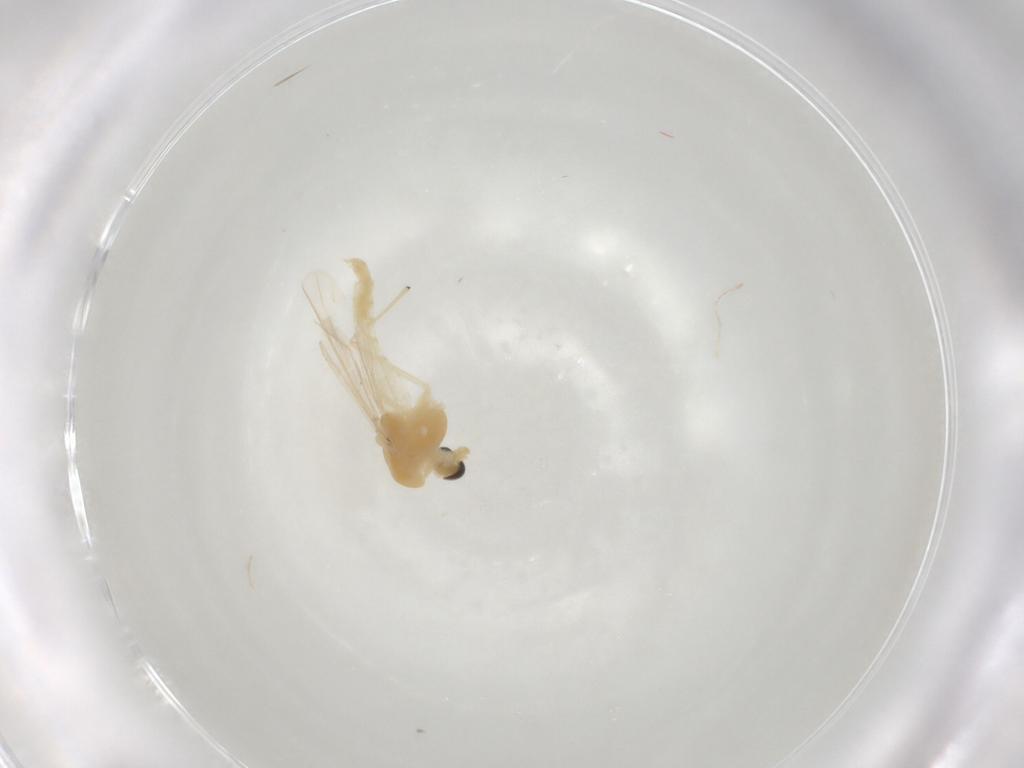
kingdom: Animalia
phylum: Arthropoda
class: Insecta
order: Diptera
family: Chironomidae
